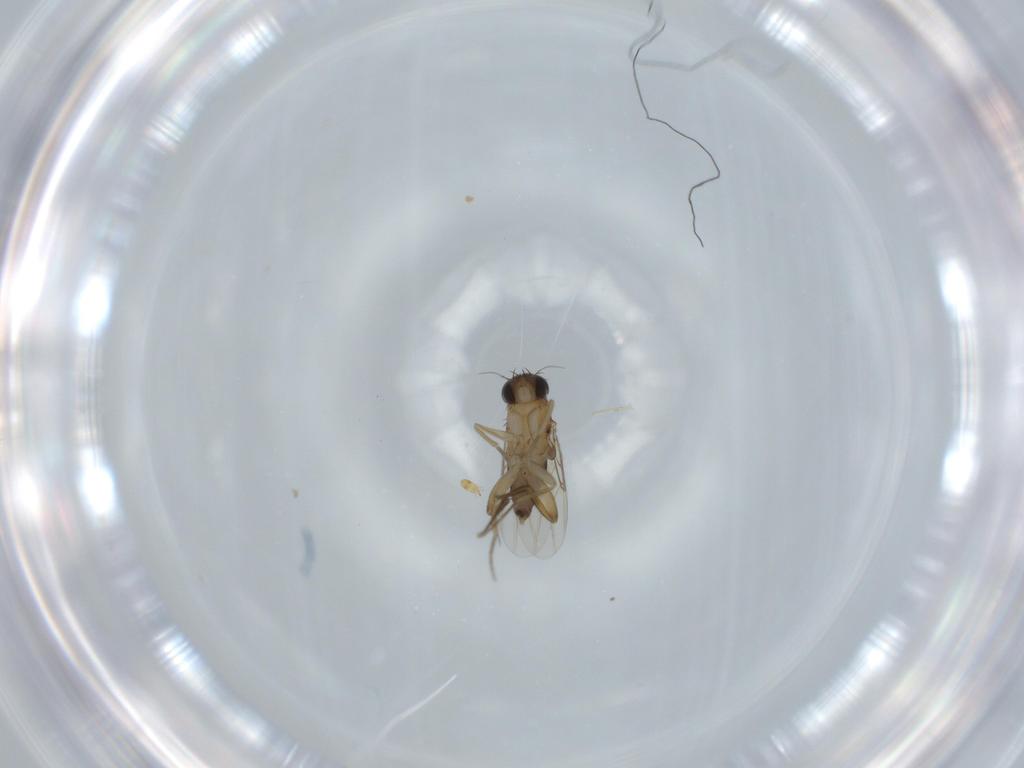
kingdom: Animalia
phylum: Arthropoda
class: Insecta
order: Diptera
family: Phoridae
